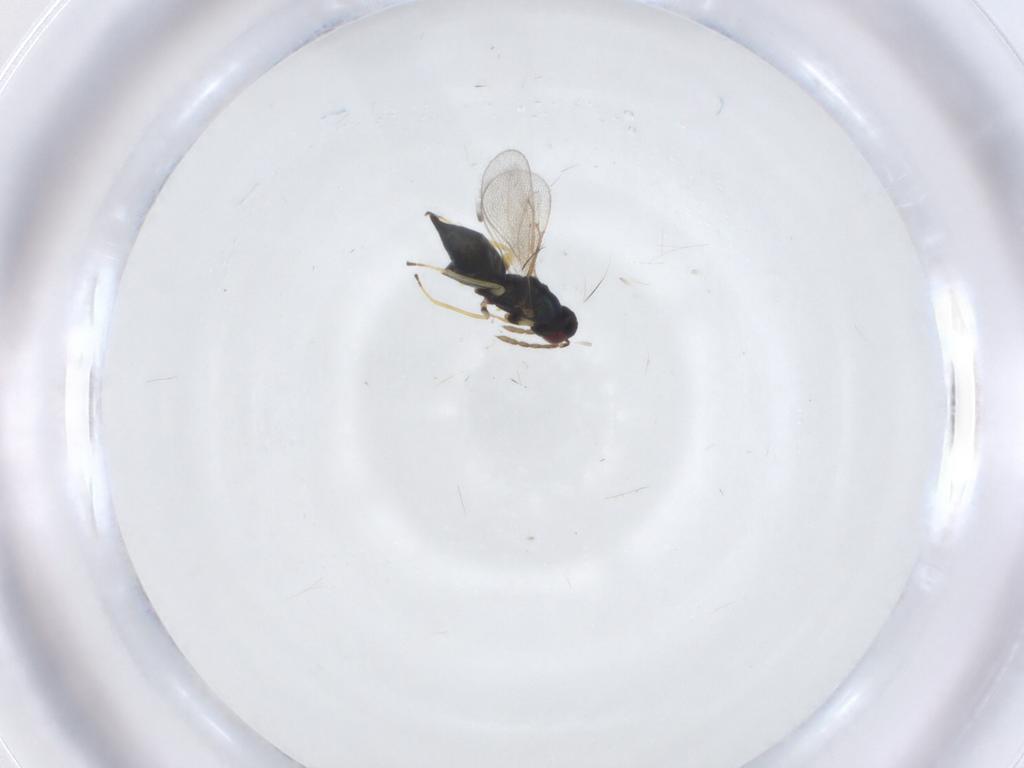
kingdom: Animalia
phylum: Arthropoda
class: Insecta
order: Hymenoptera
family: Eulophidae
